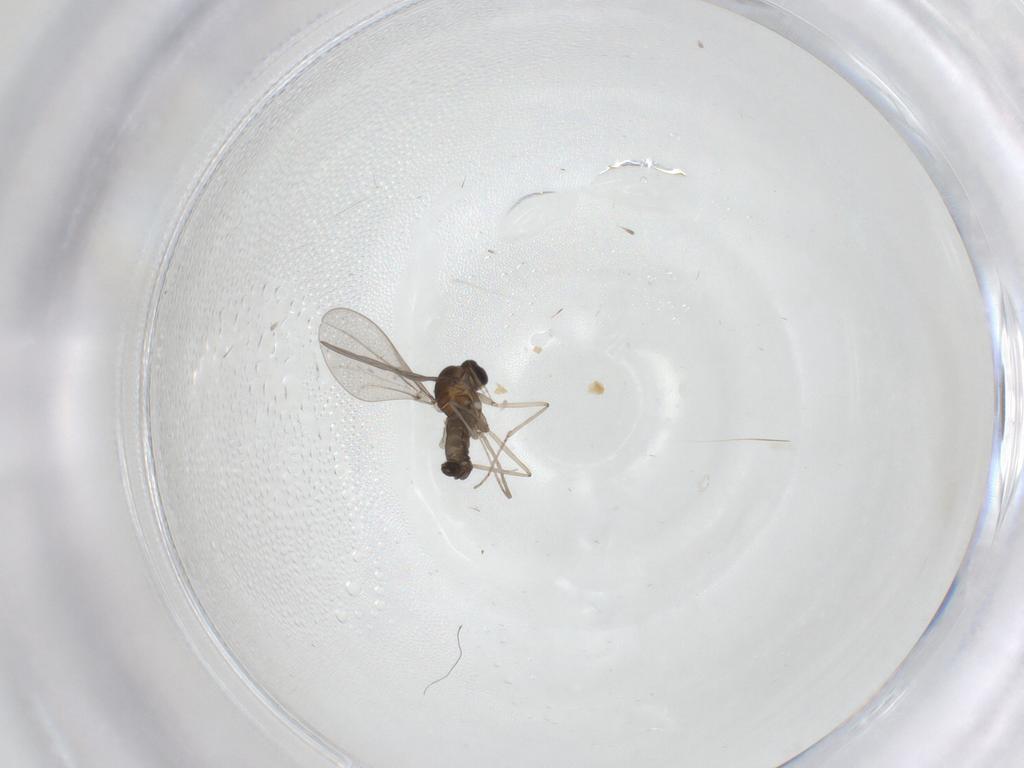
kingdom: Animalia
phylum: Arthropoda
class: Insecta
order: Diptera
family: Cecidomyiidae
